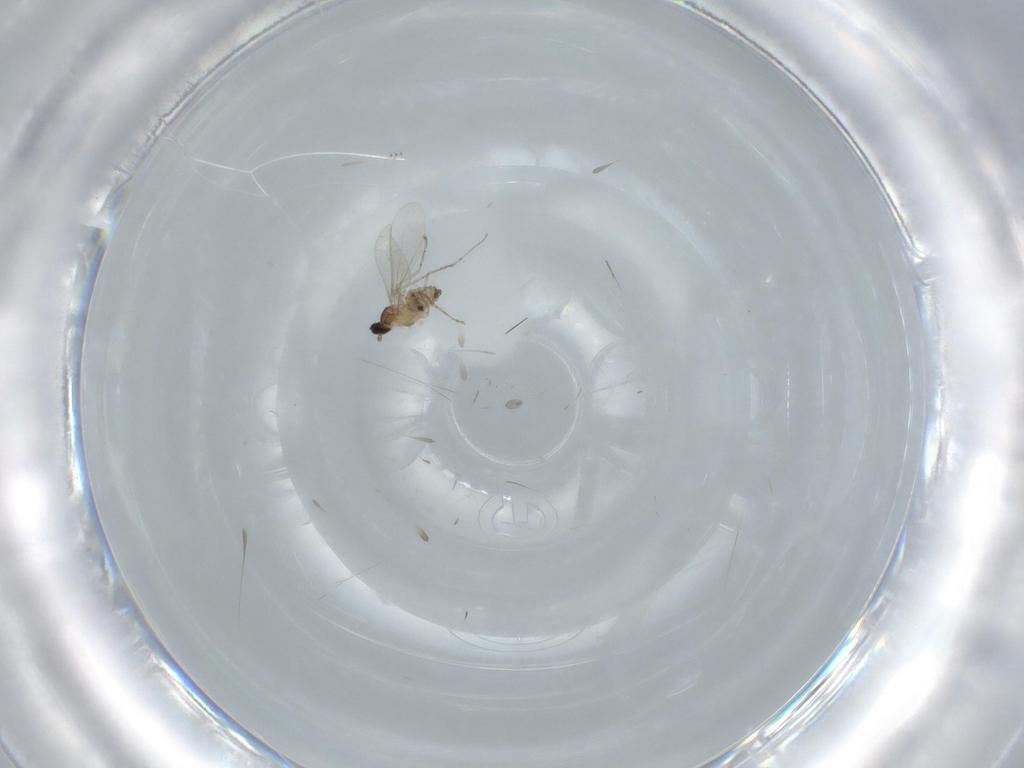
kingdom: Animalia
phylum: Arthropoda
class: Insecta
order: Diptera
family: Cecidomyiidae
